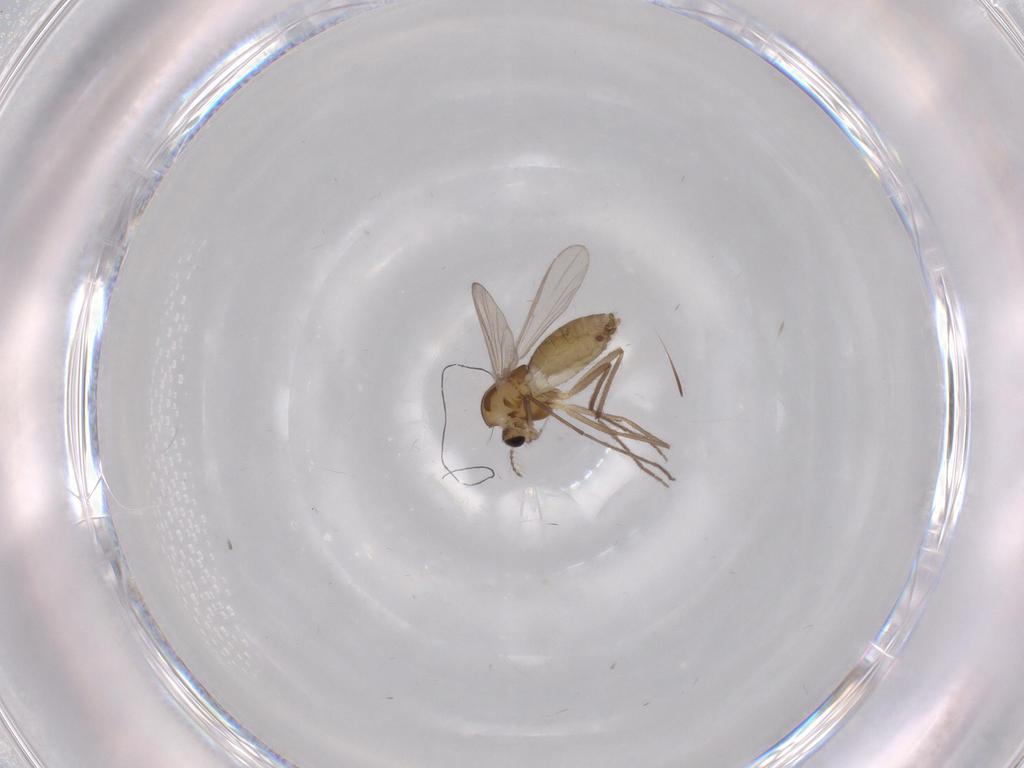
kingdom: Animalia
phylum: Arthropoda
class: Insecta
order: Diptera
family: Chironomidae
